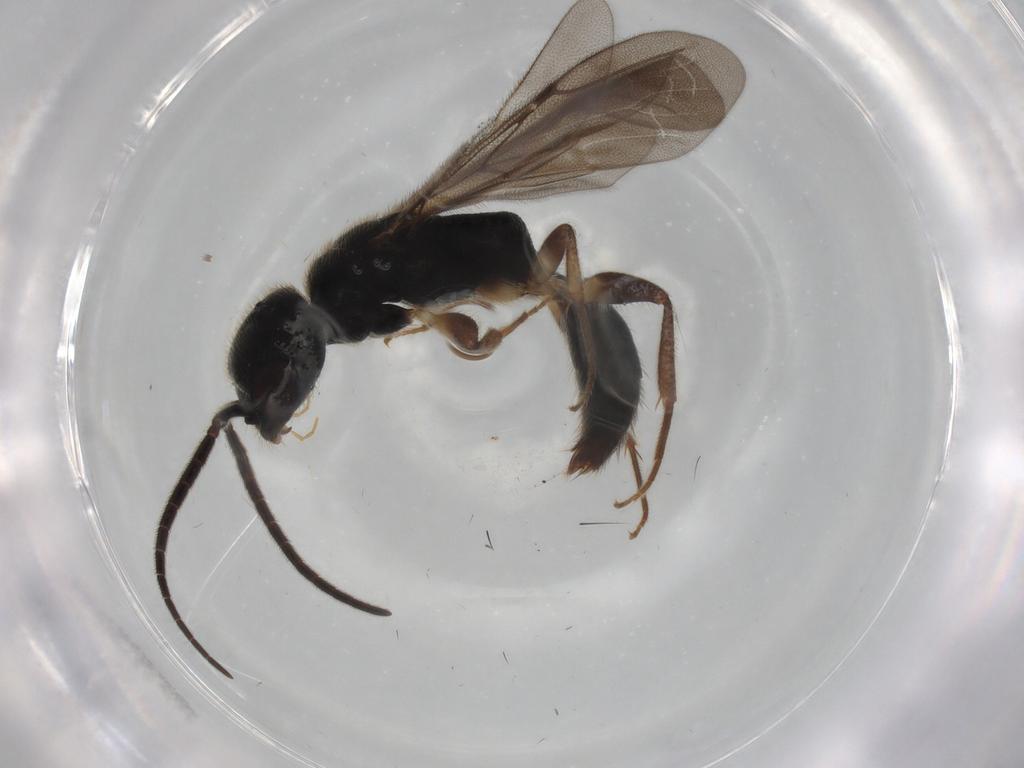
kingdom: Animalia
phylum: Arthropoda
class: Insecta
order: Hymenoptera
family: Bethylidae
